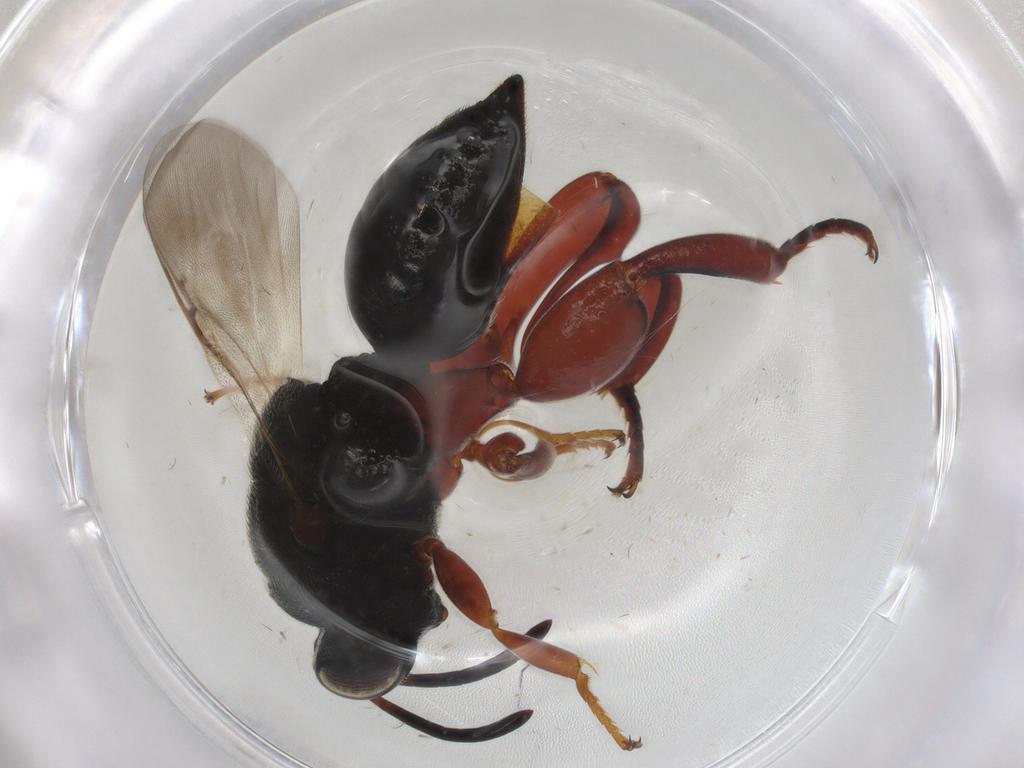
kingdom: Animalia
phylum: Arthropoda
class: Insecta
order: Hymenoptera
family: Chalcididae
